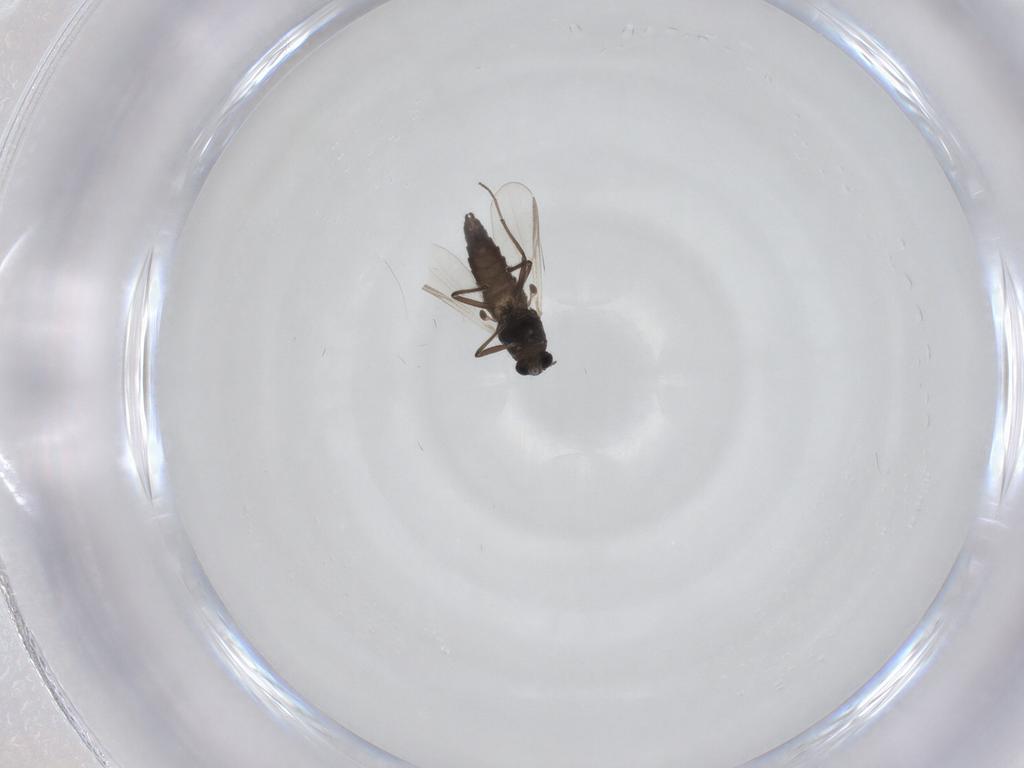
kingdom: Animalia
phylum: Arthropoda
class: Insecta
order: Diptera
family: Chironomidae
